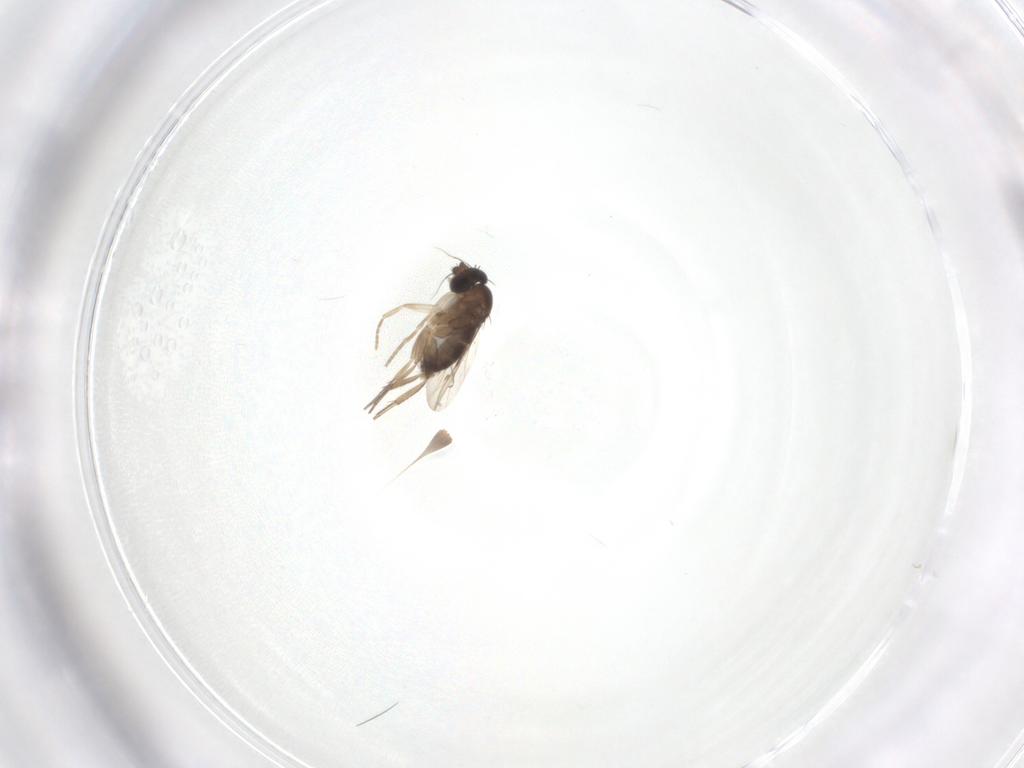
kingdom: Animalia
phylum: Arthropoda
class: Insecta
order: Diptera
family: Phoridae
